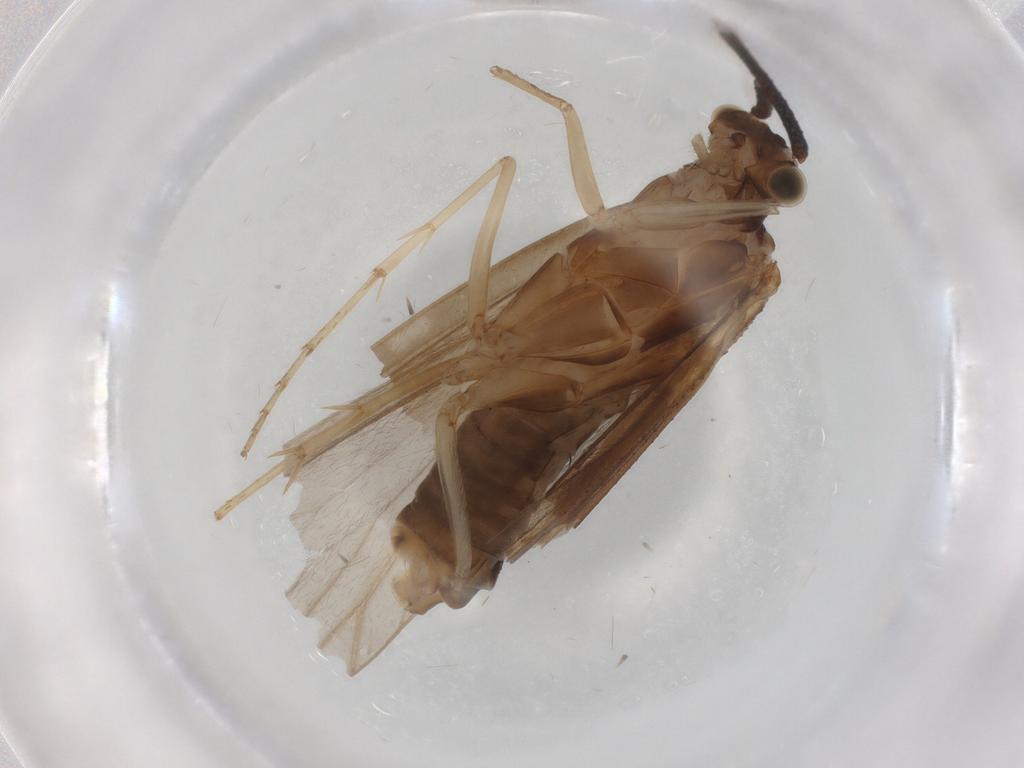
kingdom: Animalia
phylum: Arthropoda
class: Insecta
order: Trichoptera
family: Lepidostomatidae
